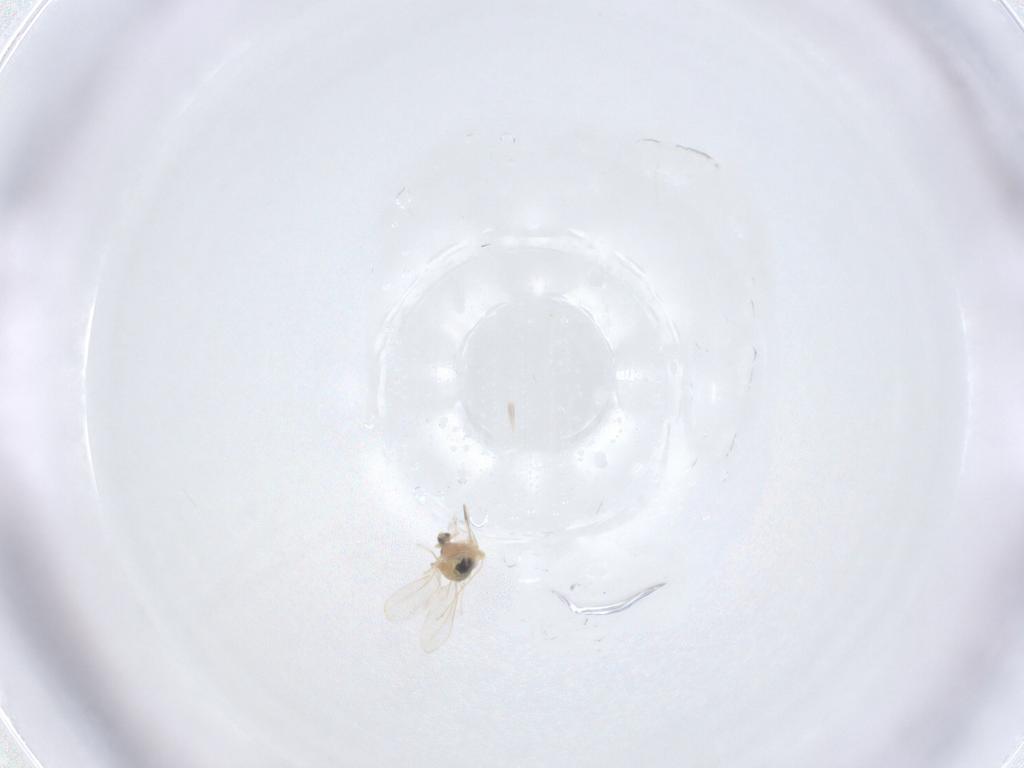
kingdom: Animalia
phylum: Arthropoda
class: Insecta
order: Diptera
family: Cecidomyiidae
